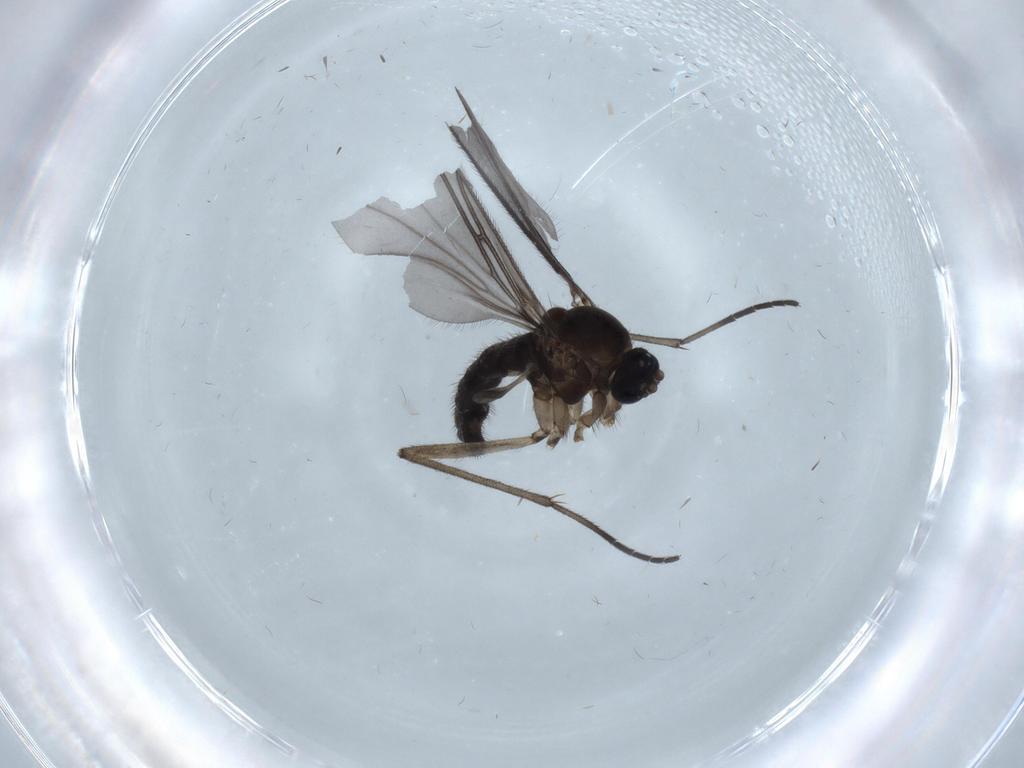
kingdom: Animalia
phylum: Arthropoda
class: Insecta
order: Diptera
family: Sciaridae
